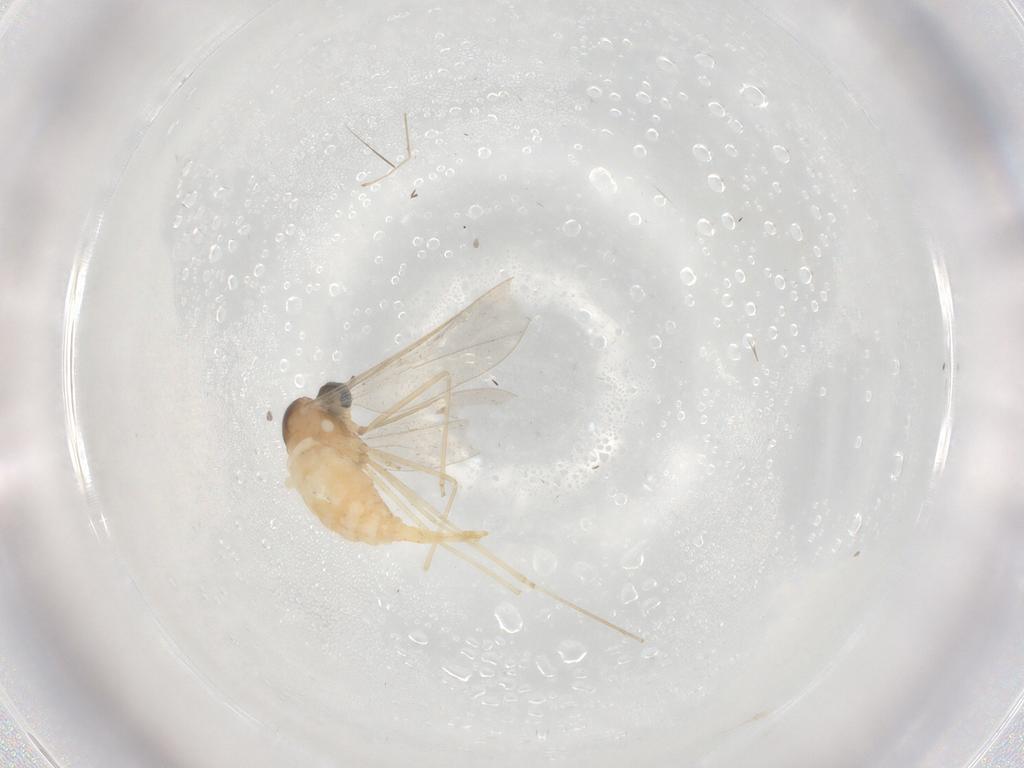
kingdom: Animalia
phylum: Arthropoda
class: Insecta
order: Diptera
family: Cecidomyiidae
